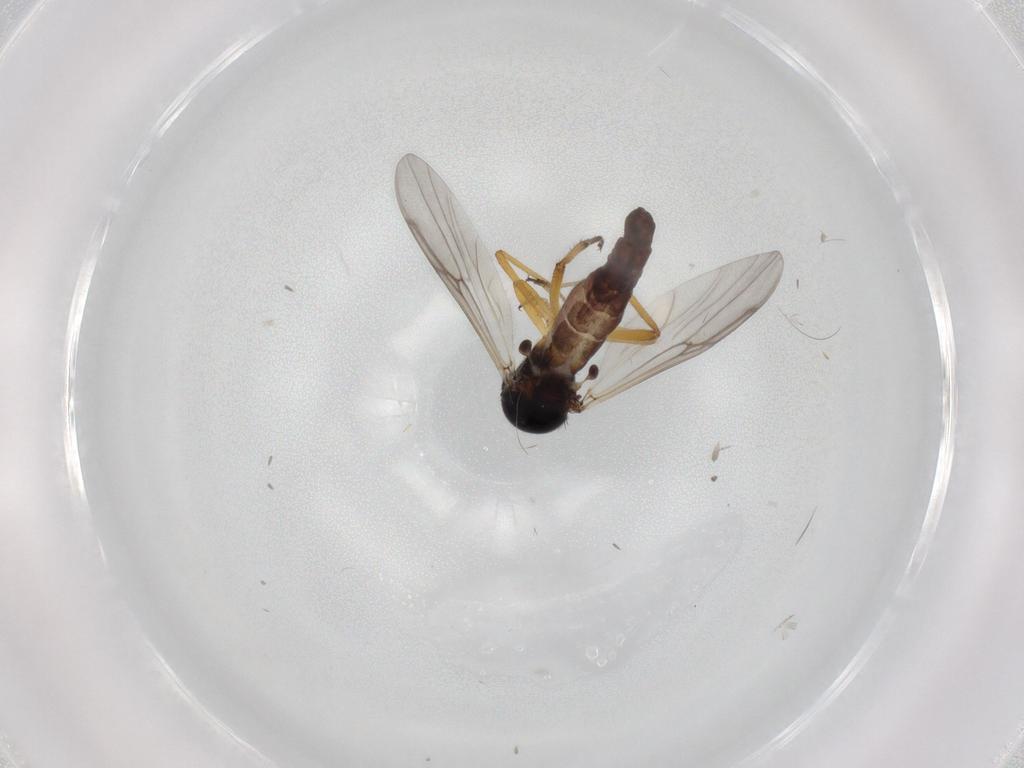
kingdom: Animalia
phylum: Arthropoda
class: Insecta
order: Diptera
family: Ceratopogonidae
